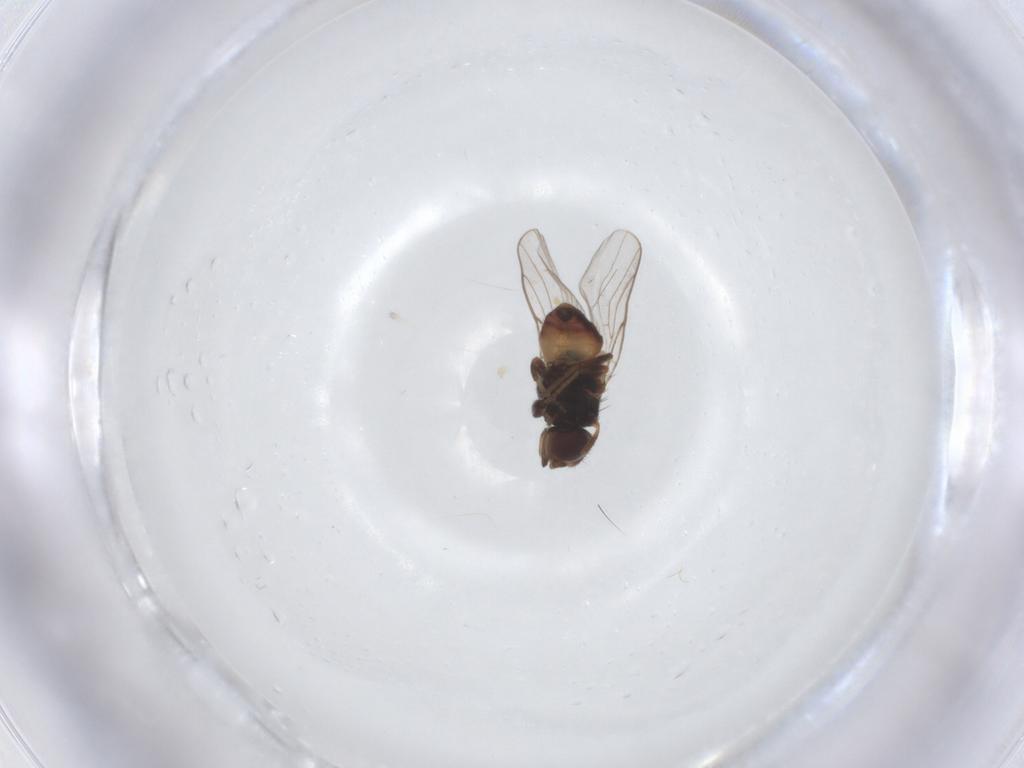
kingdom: Animalia
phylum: Arthropoda
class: Insecta
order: Diptera
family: Chloropidae
